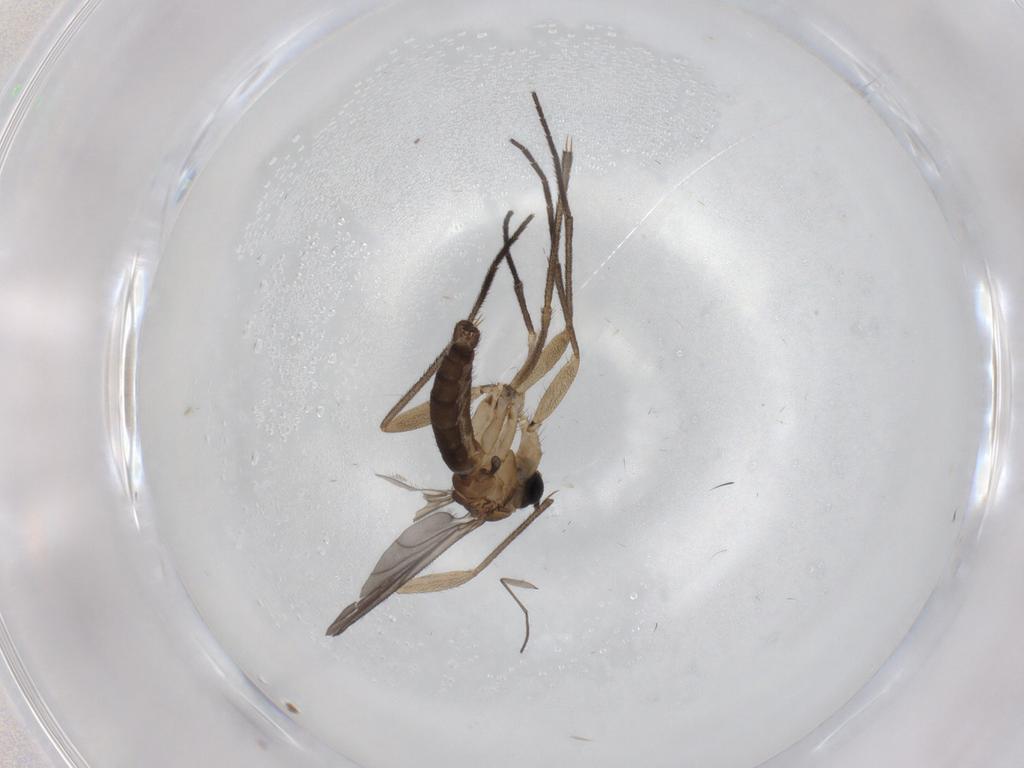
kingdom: Animalia
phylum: Arthropoda
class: Insecta
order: Diptera
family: Sciaridae
